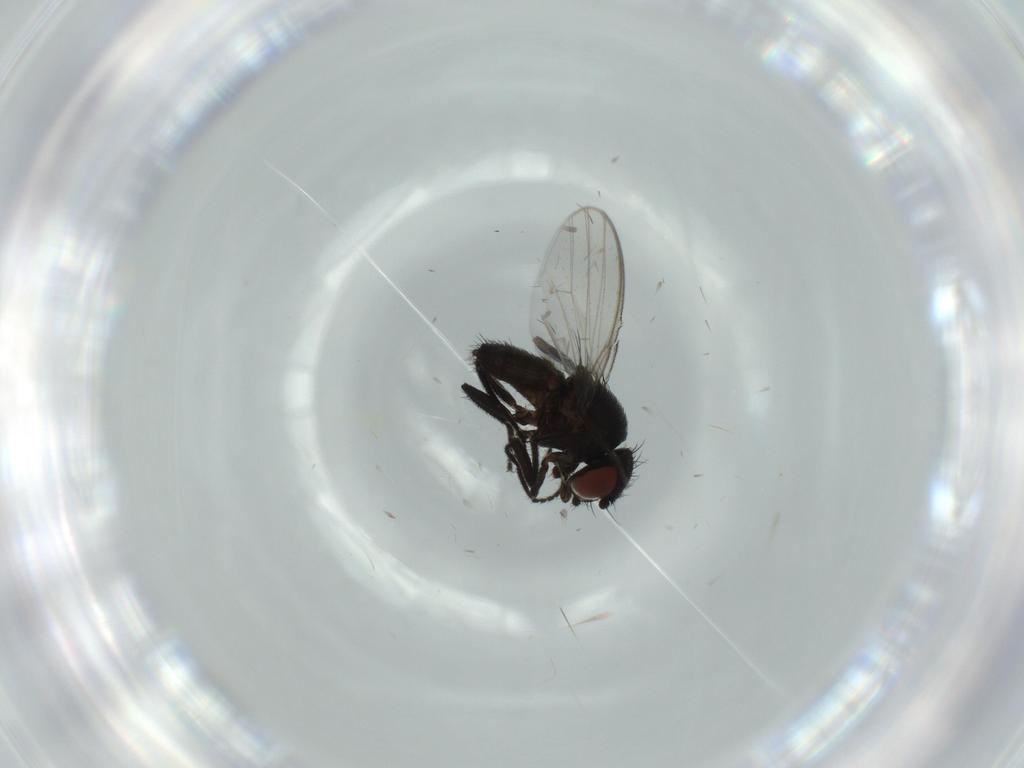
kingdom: Animalia
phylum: Arthropoda
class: Insecta
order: Diptera
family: Milichiidae
